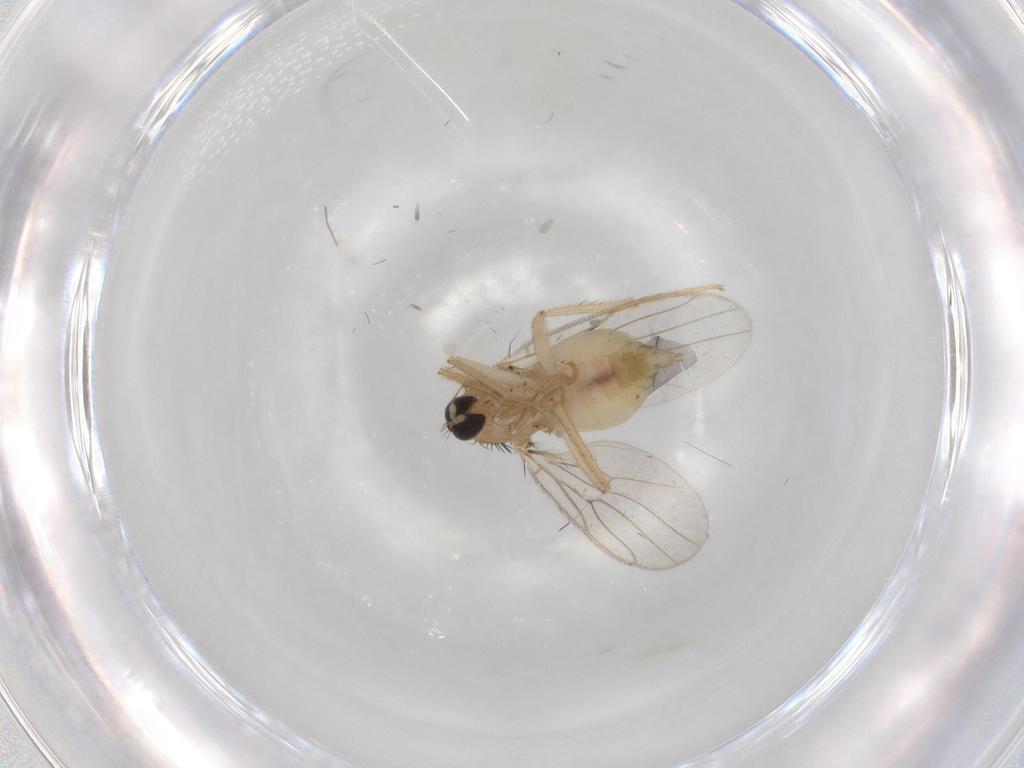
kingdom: Animalia
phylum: Arthropoda
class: Insecta
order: Diptera
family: Hybotidae
